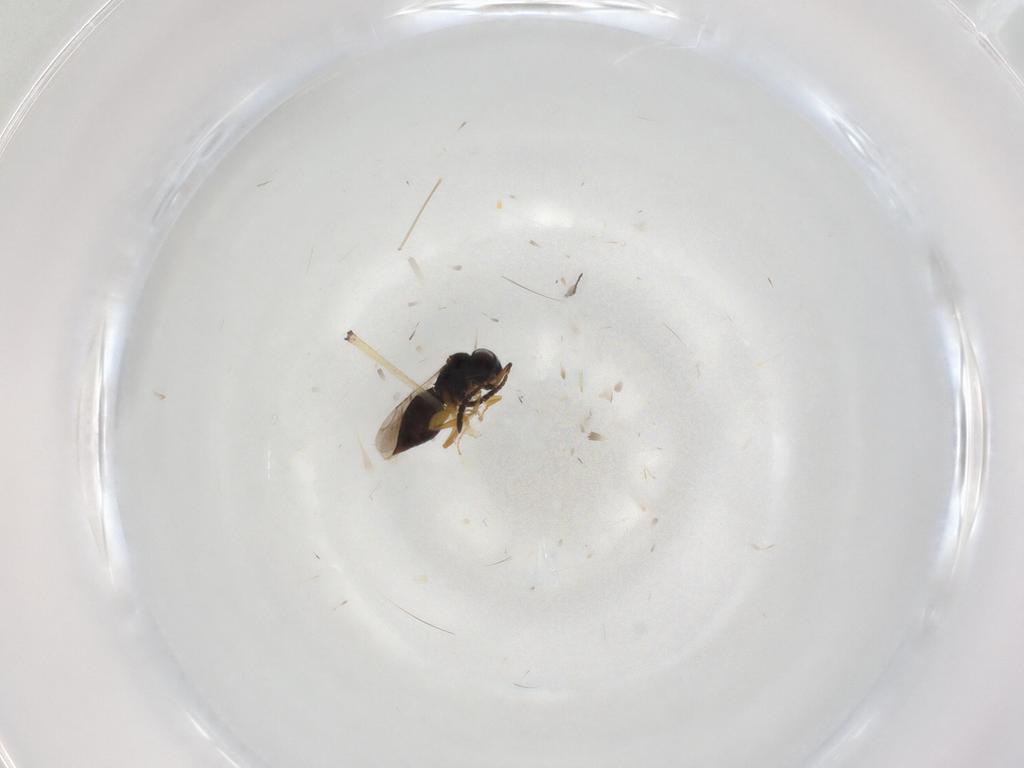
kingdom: Animalia
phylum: Arthropoda
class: Insecta
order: Hymenoptera
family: Ceraphronidae
